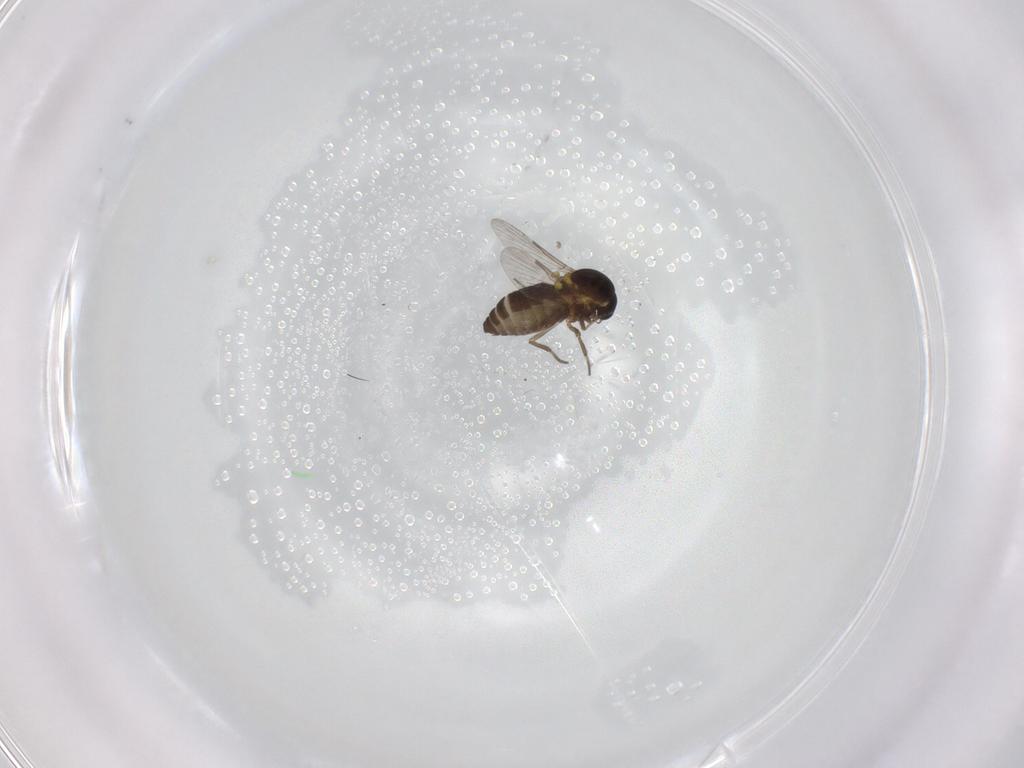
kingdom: Animalia
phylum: Arthropoda
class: Insecta
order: Diptera
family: Ceratopogonidae
